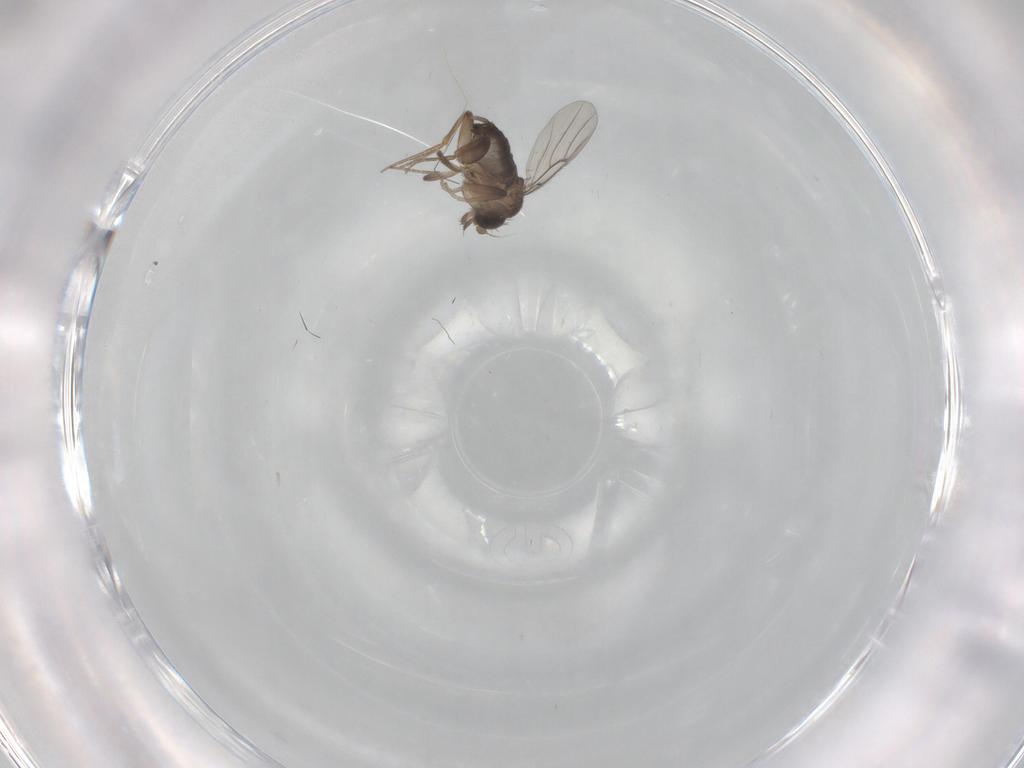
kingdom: Animalia
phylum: Arthropoda
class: Insecta
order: Diptera
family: Phoridae
